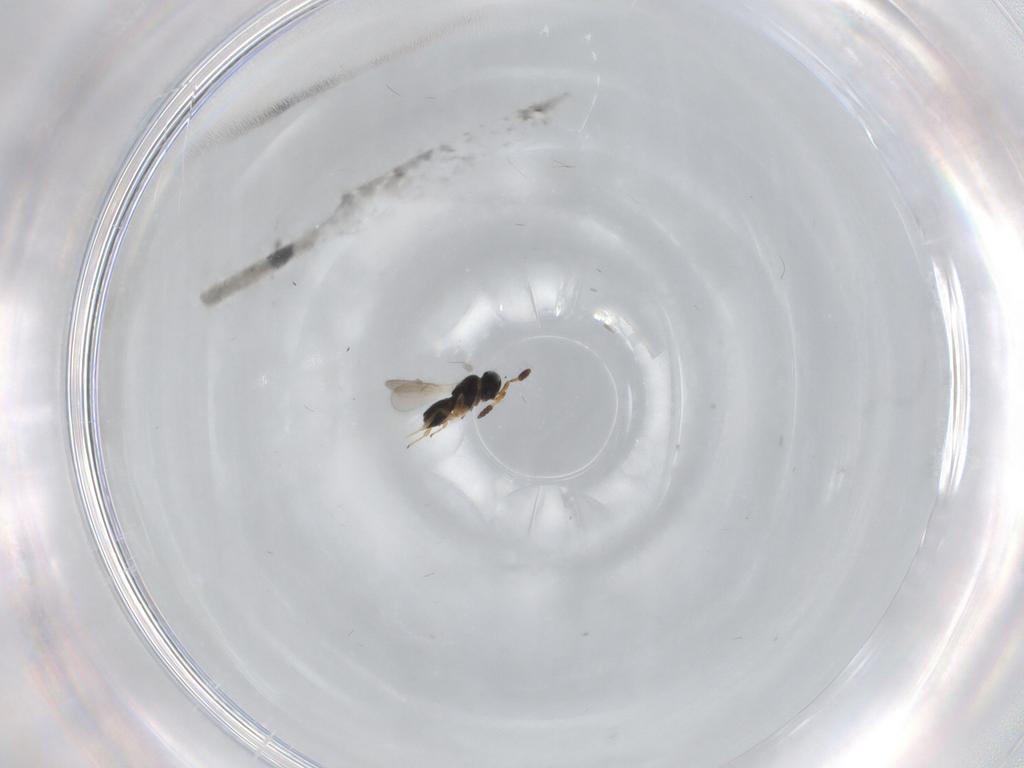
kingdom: Animalia
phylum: Arthropoda
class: Insecta
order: Hymenoptera
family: Scelionidae
